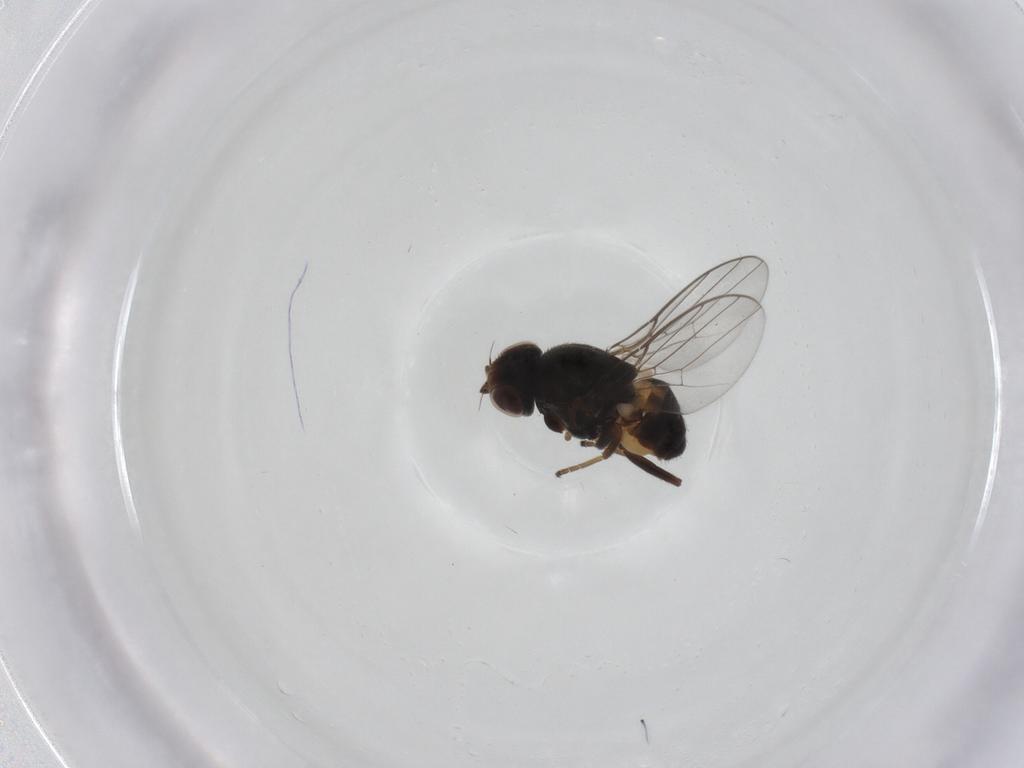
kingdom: Animalia
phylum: Arthropoda
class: Insecta
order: Diptera
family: Chloropidae
